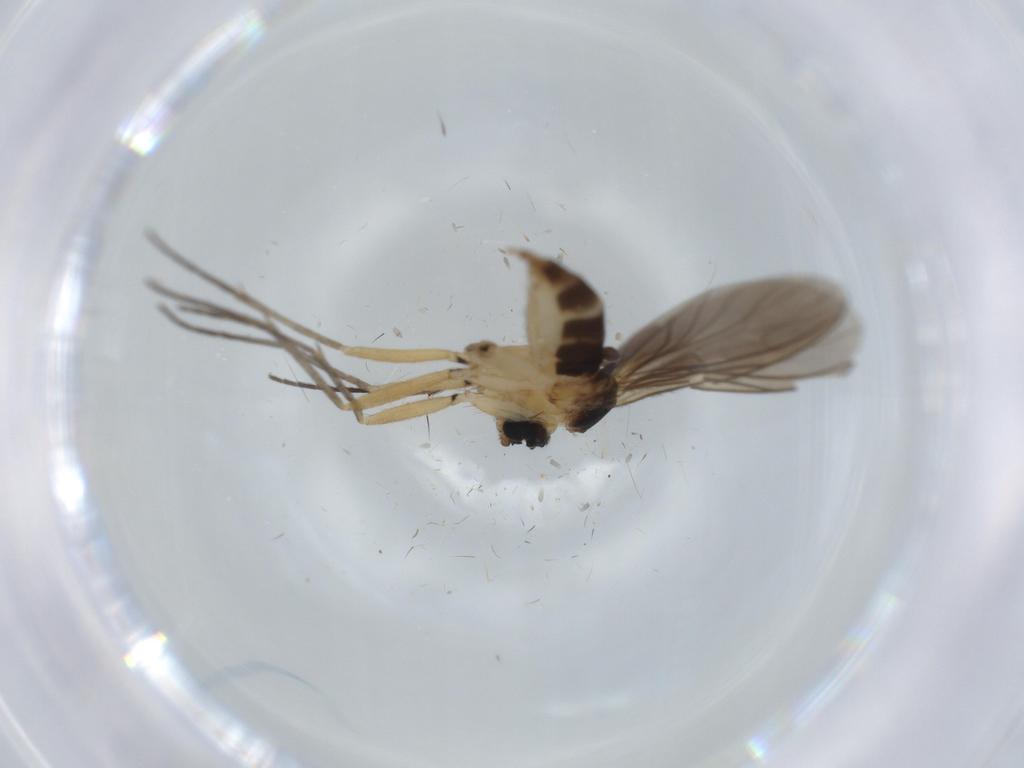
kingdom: Animalia
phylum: Arthropoda
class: Insecta
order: Diptera
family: Sciaridae
